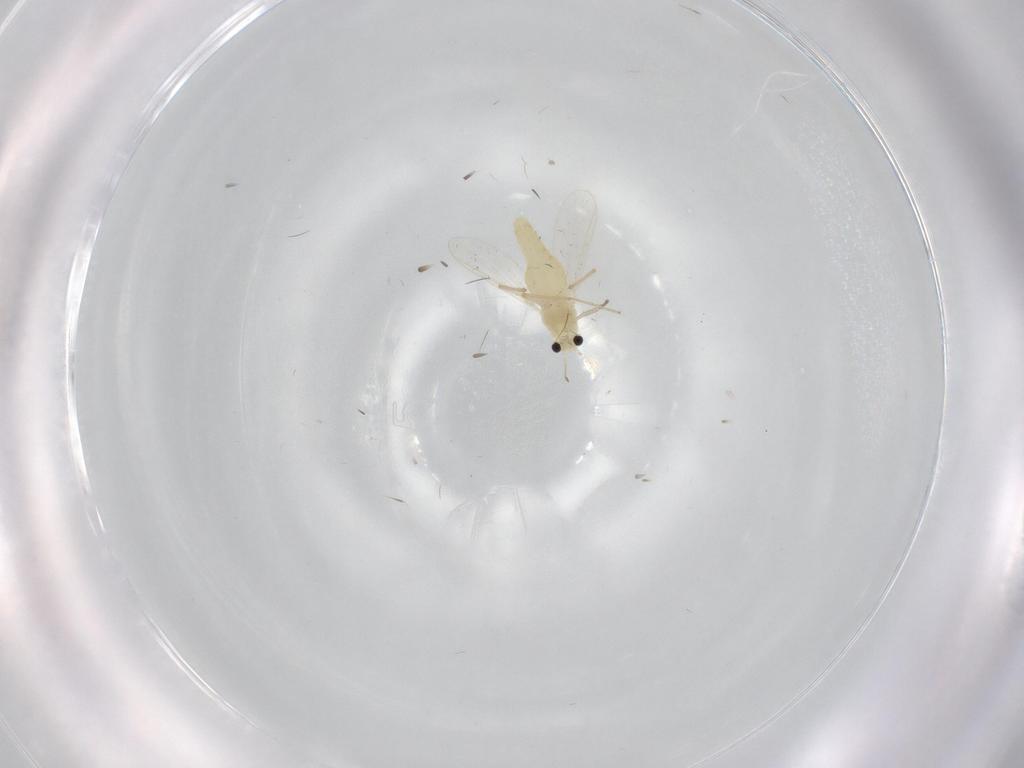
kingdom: Animalia
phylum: Arthropoda
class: Insecta
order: Diptera
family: Chironomidae
